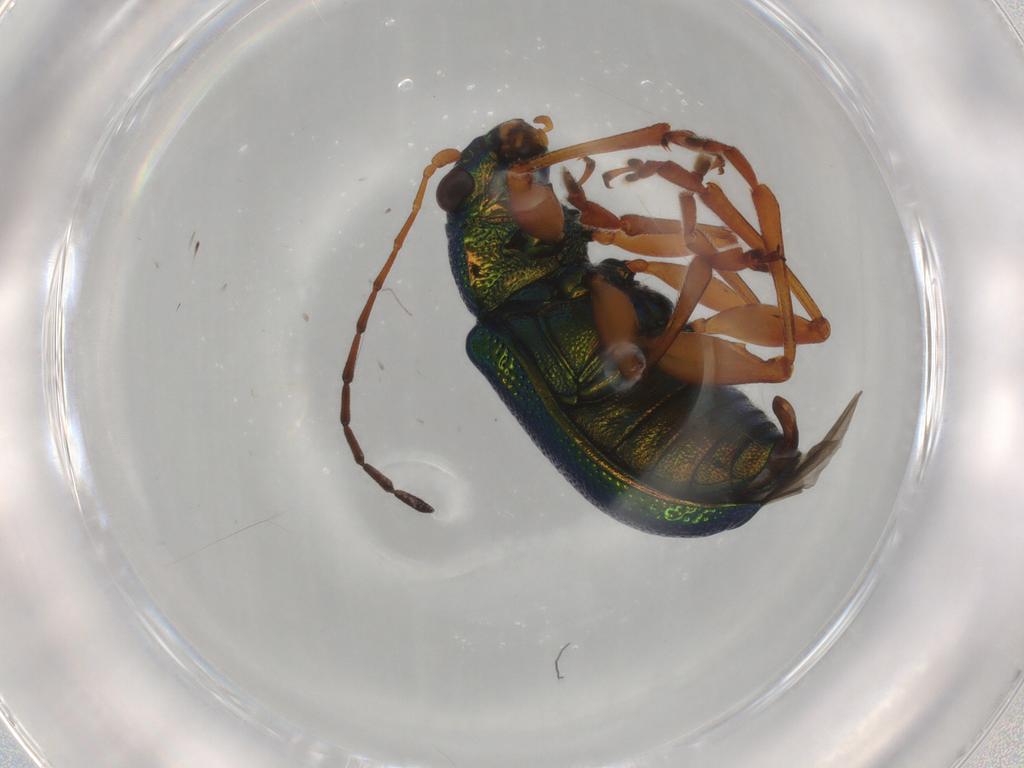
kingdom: Animalia
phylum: Arthropoda
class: Insecta
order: Coleoptera
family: Chrysomelidae
